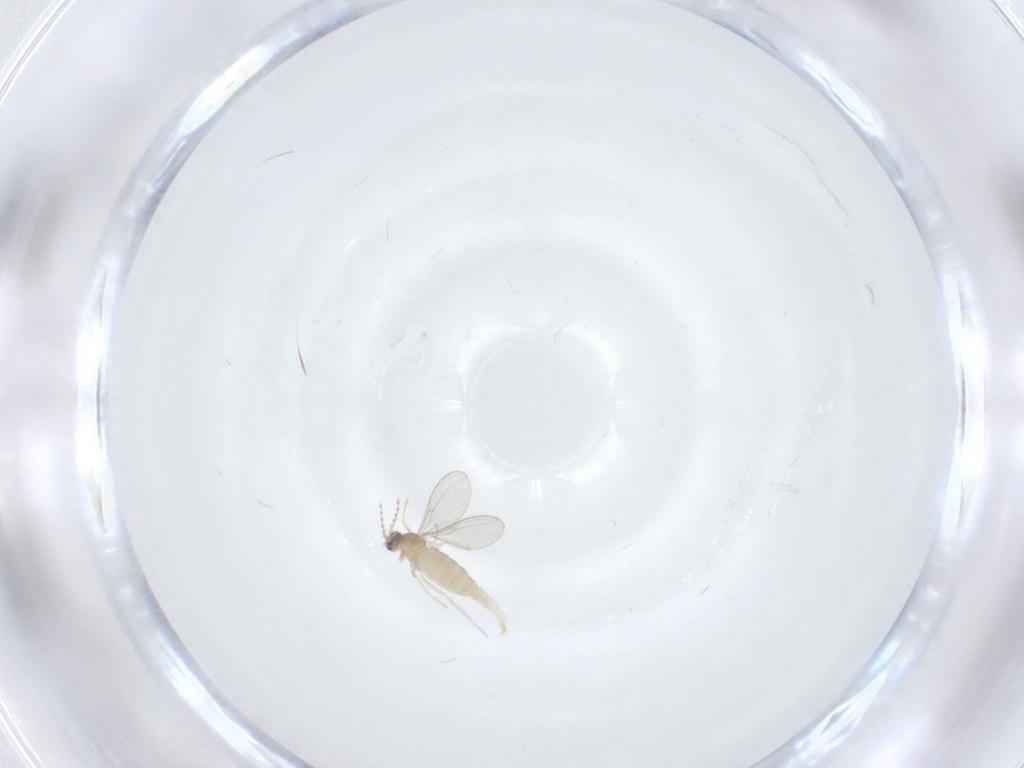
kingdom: Animalia
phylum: Arthropoda
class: Insecta
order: Diptera
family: Cecidomyiidae
